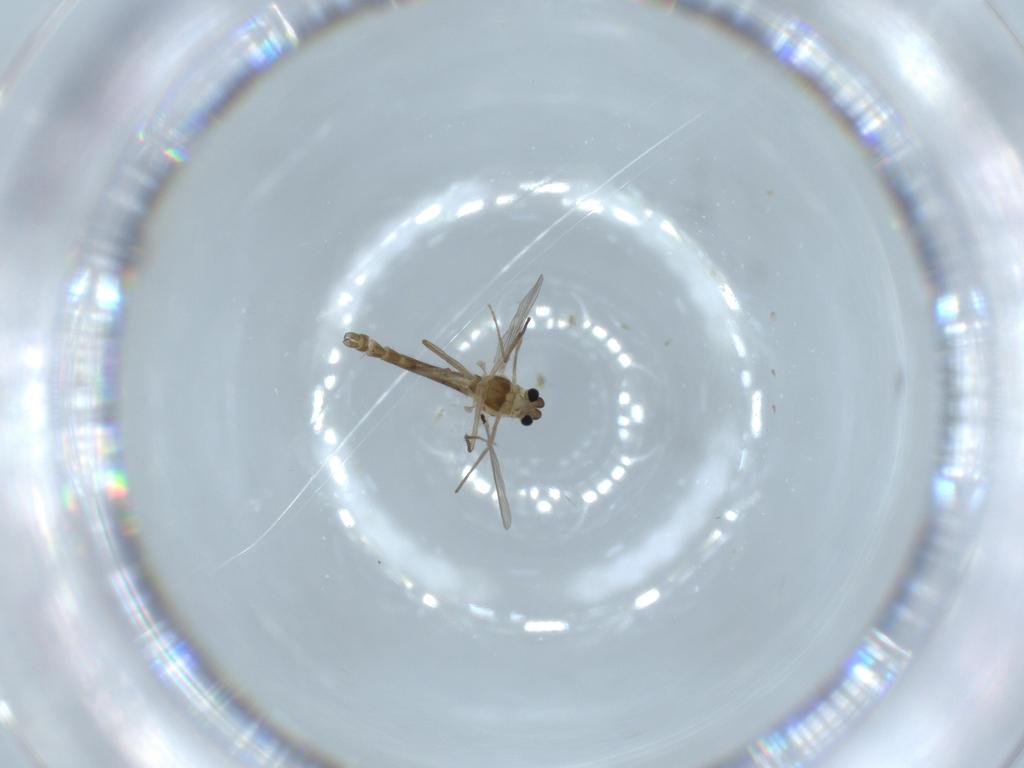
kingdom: Animalia
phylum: Arthropoda
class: Insecta
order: Diptera
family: Chironomidae
